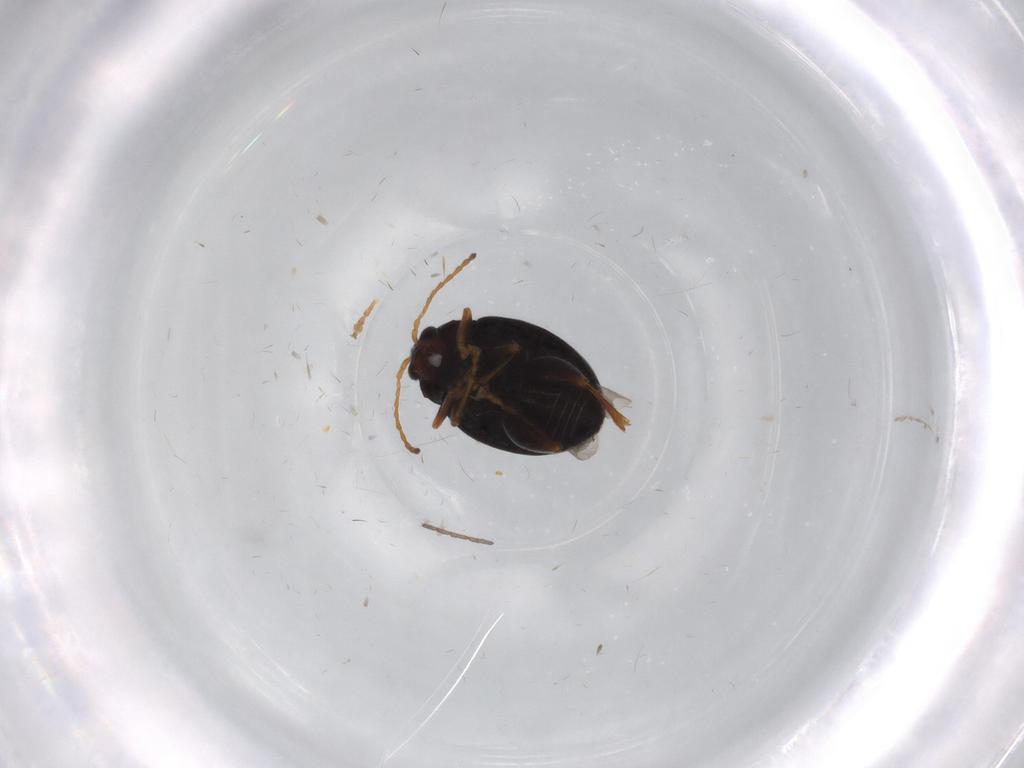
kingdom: Animalia
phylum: Arthropoda
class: Insecta
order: Coleoptera
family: Chrysomelidae
